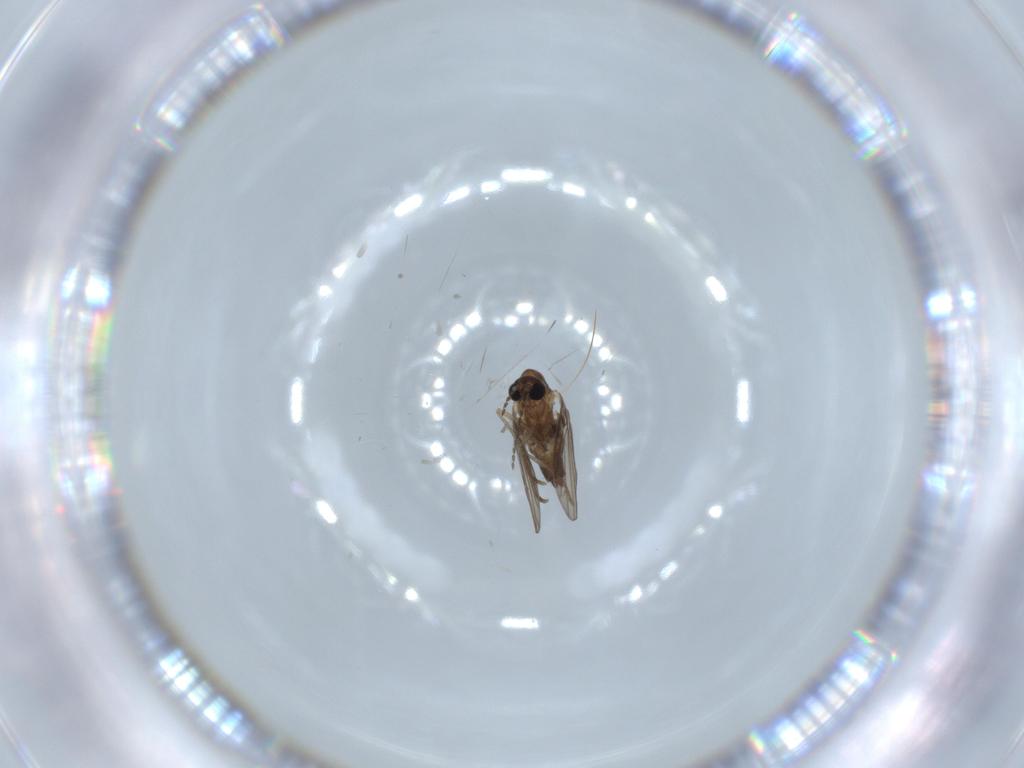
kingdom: Animalia
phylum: Arthropoda
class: Insecta
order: Diptera
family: Psychodidae
